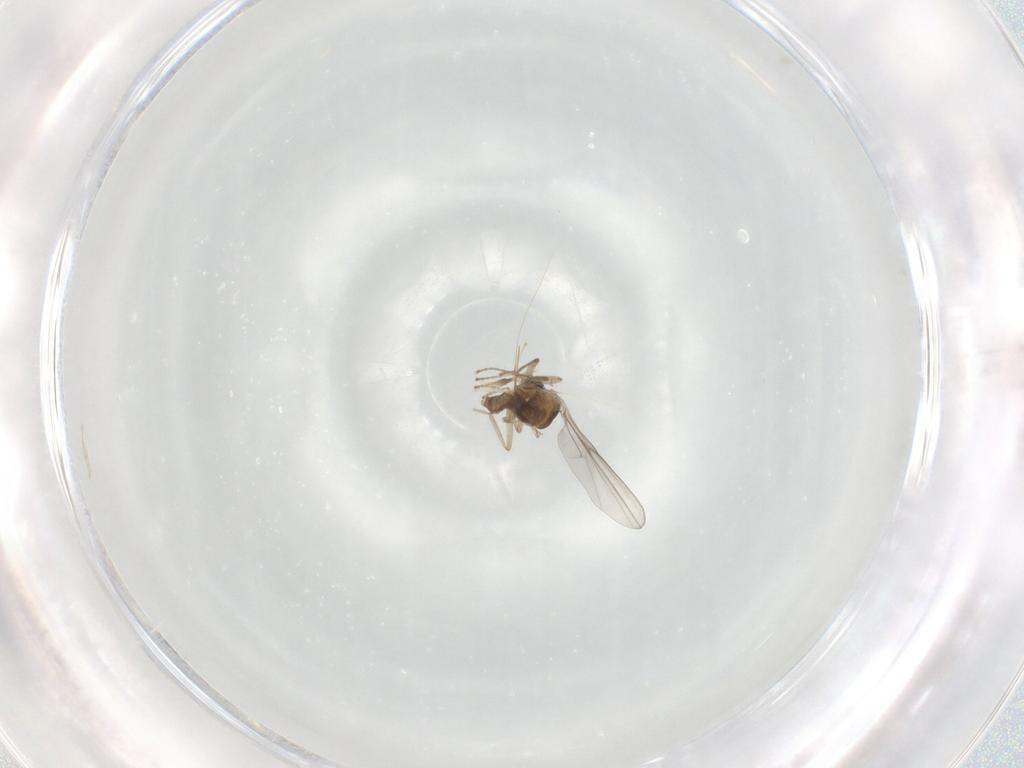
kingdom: Animalia
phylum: Arthropoda
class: Insecta
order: Diptera
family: Cecidomyiidae
